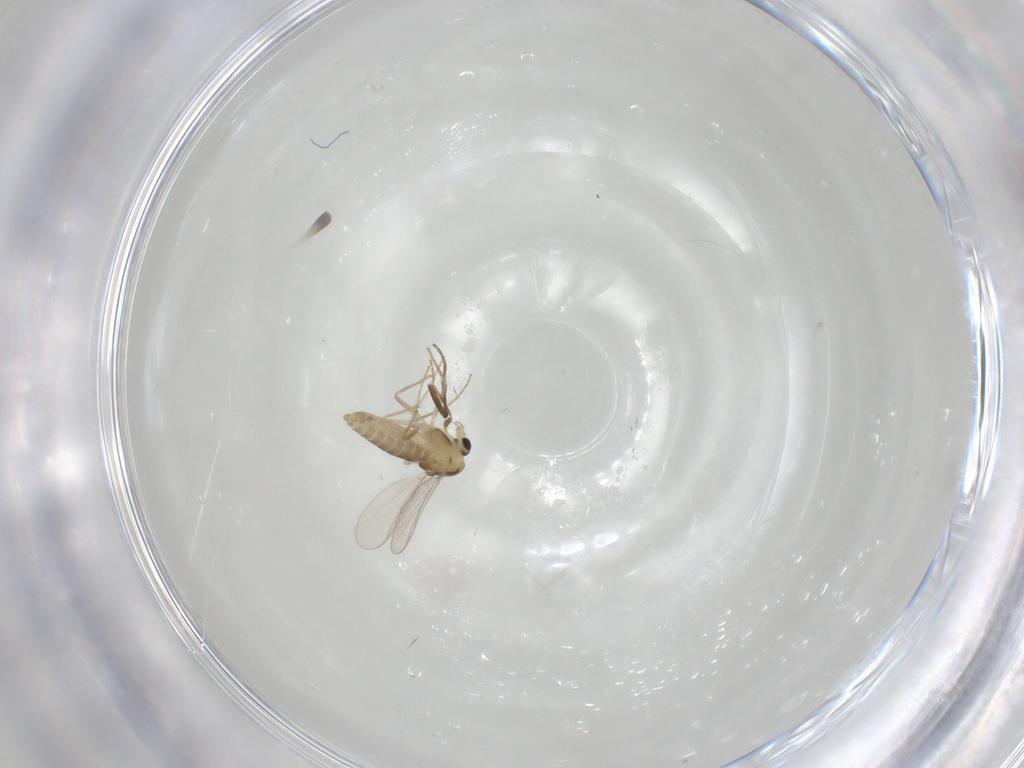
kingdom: Animalia
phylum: Arthropoda
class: Insecta
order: Diptera
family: Chironomidae
